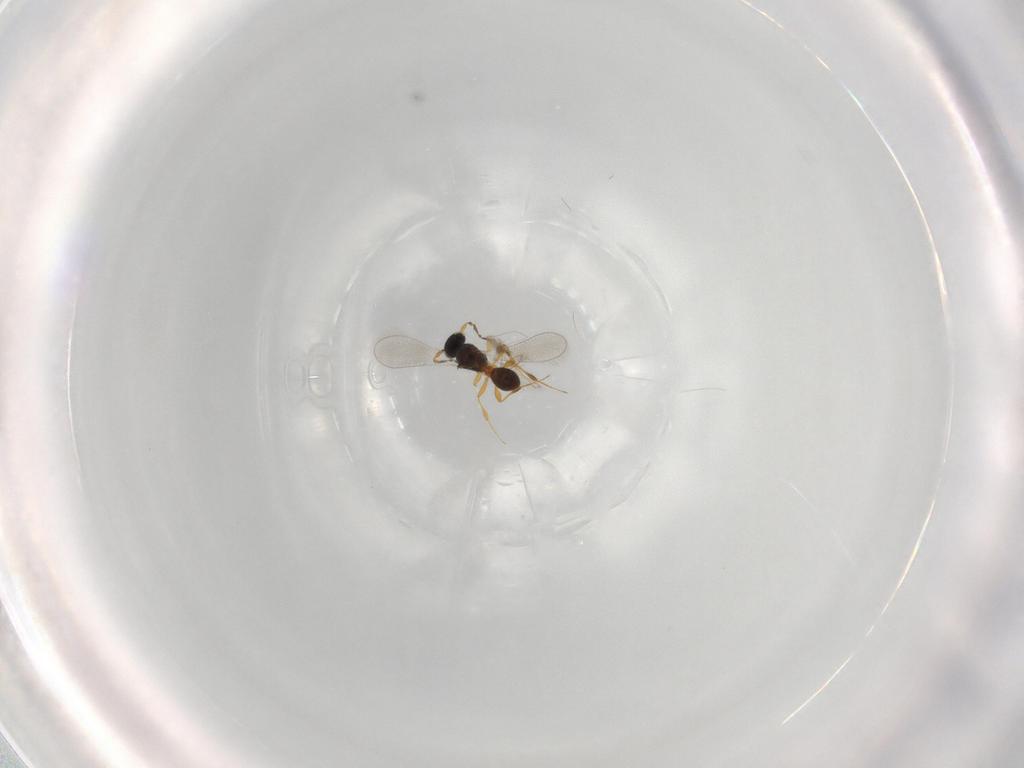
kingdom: Animalia
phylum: Arthropoda
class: Insecta
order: Hymenoptera
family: Platygastridae
